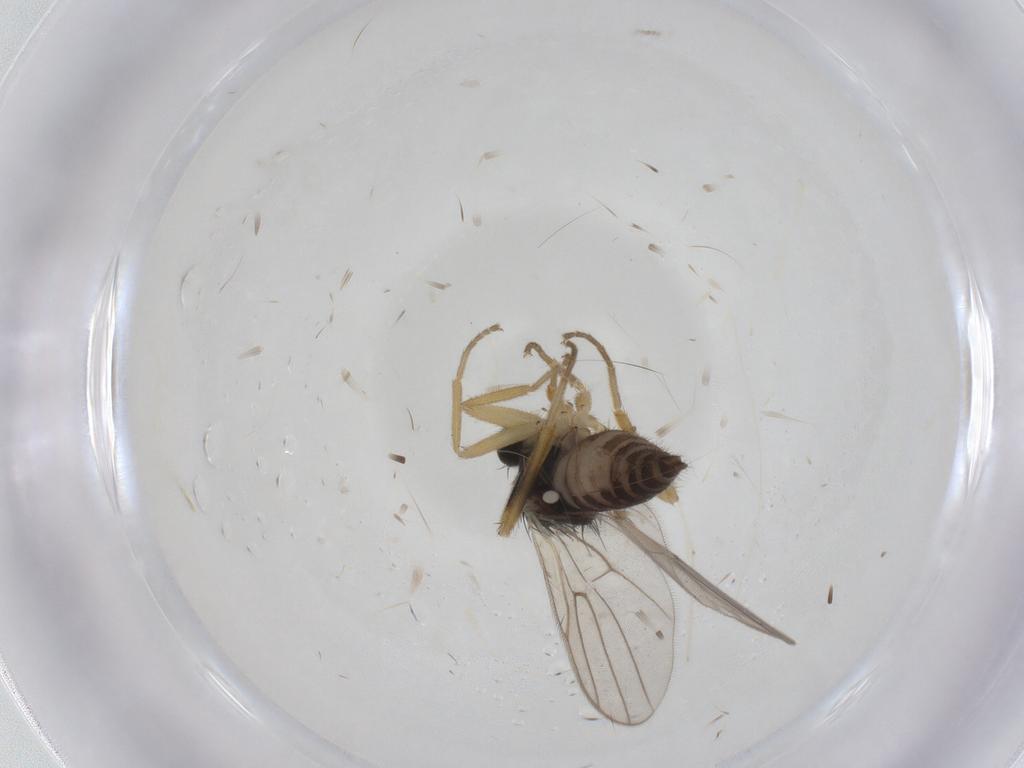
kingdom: Animalia
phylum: Arthropoda
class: Insecta
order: Diptera
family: Hybotidae
